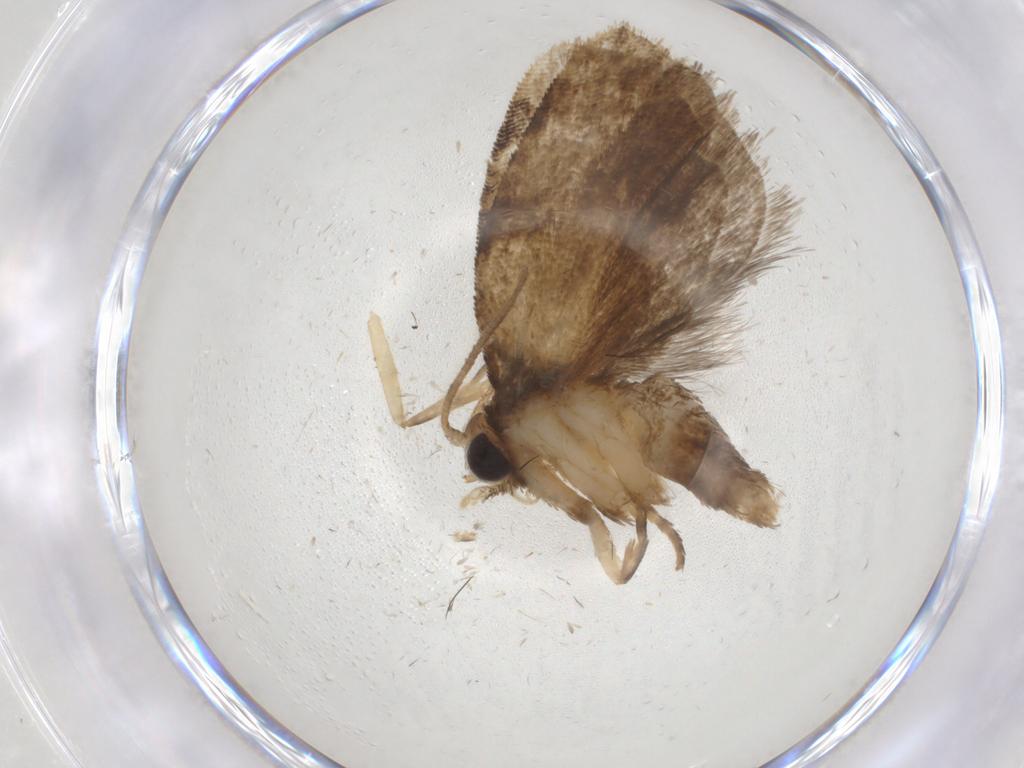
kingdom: Animalia
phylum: Arthropoda
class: Insecta
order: Lepidoptera
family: Tortricidae
